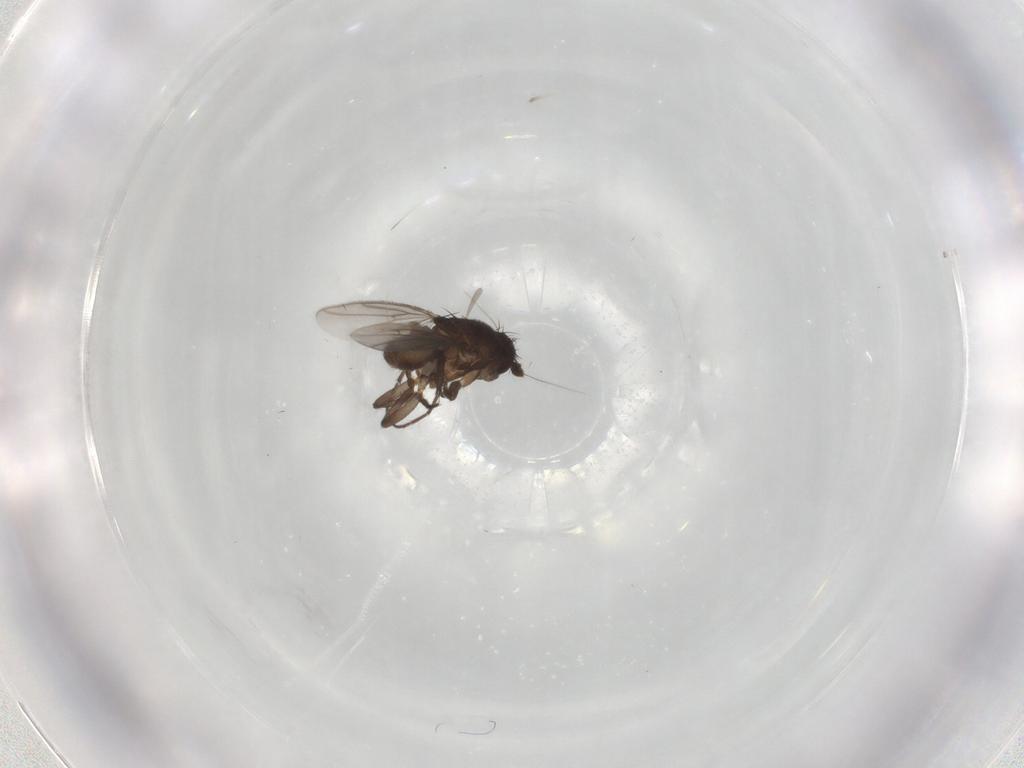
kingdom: Animalia
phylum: Arthropoda
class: Insecta
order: Diptera
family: Sphaeroceridae
